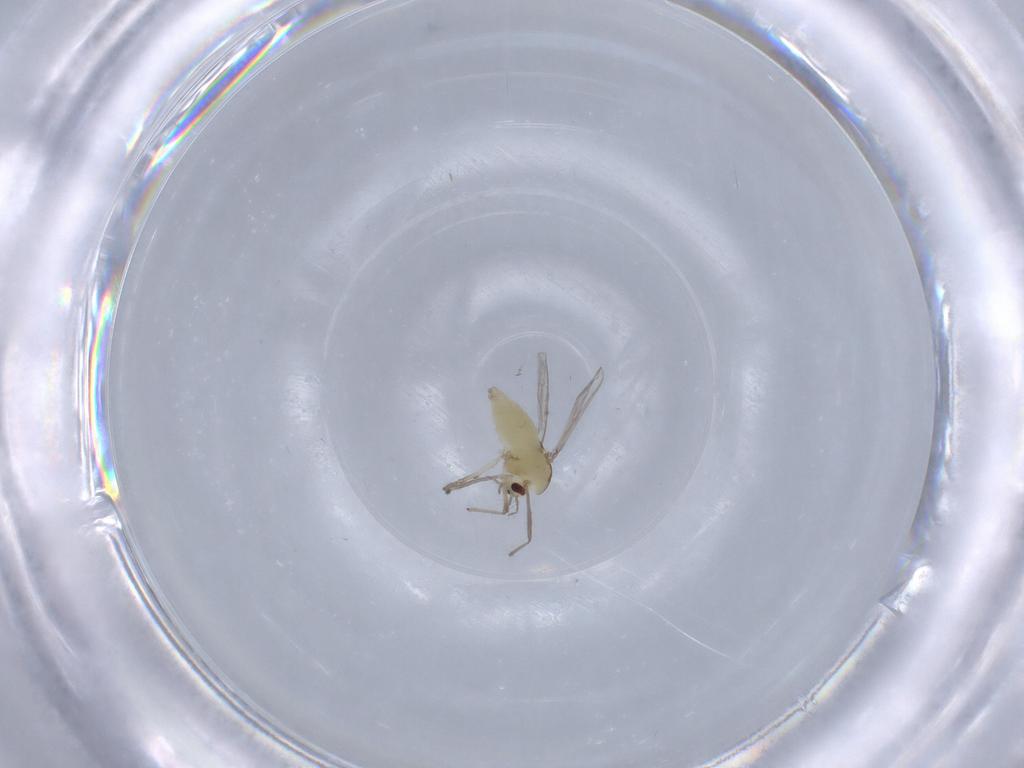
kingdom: Animalia
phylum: Arthropoda
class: Insecta
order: Diptera
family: Chironomidae
